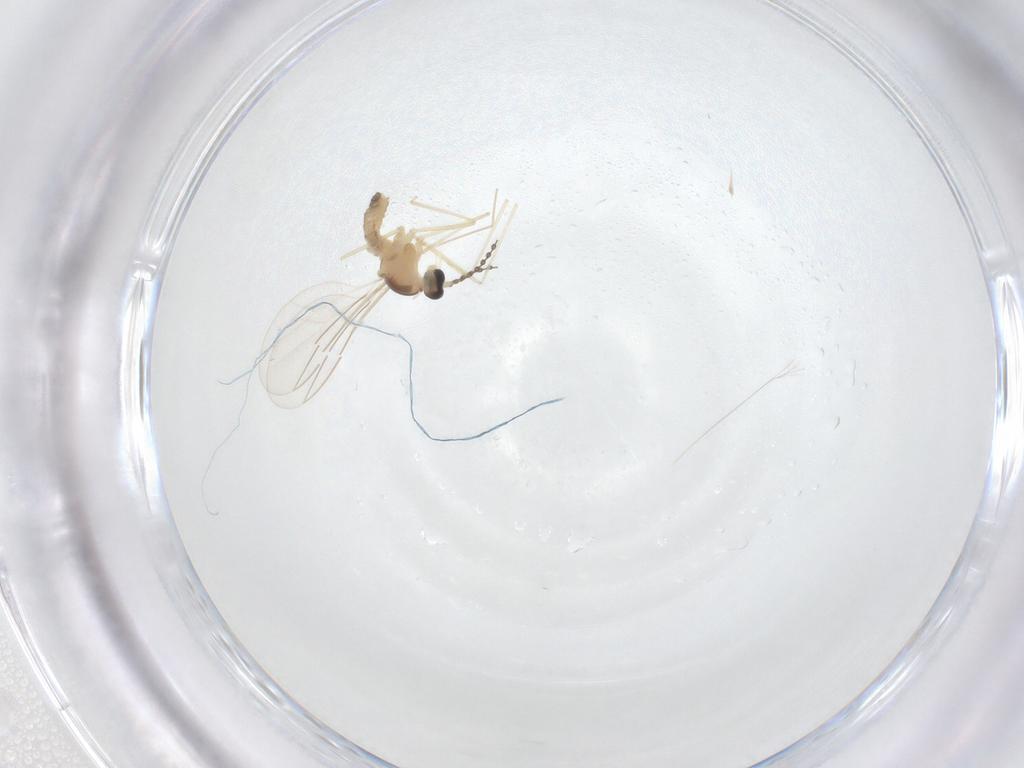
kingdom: Animalia
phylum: Arthropoda
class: Insecta
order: Diptera
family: Cecidomyiidae
